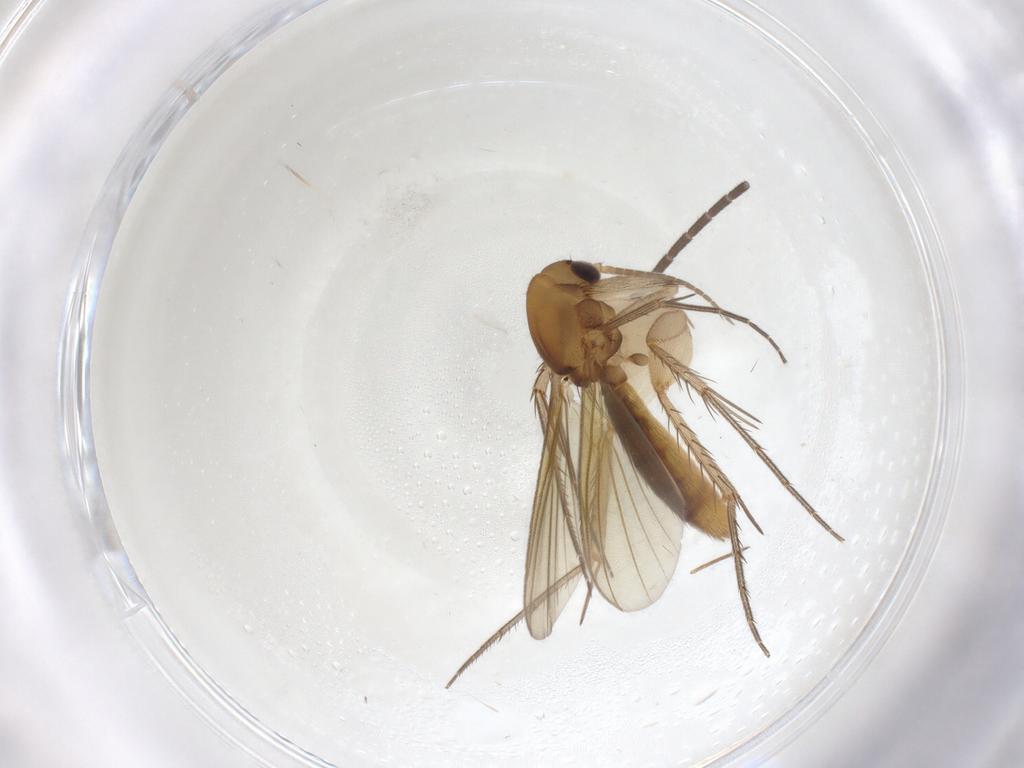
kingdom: Animalia
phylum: Arthropoda
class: Insecta
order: Diptera
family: Mycetophilidae
